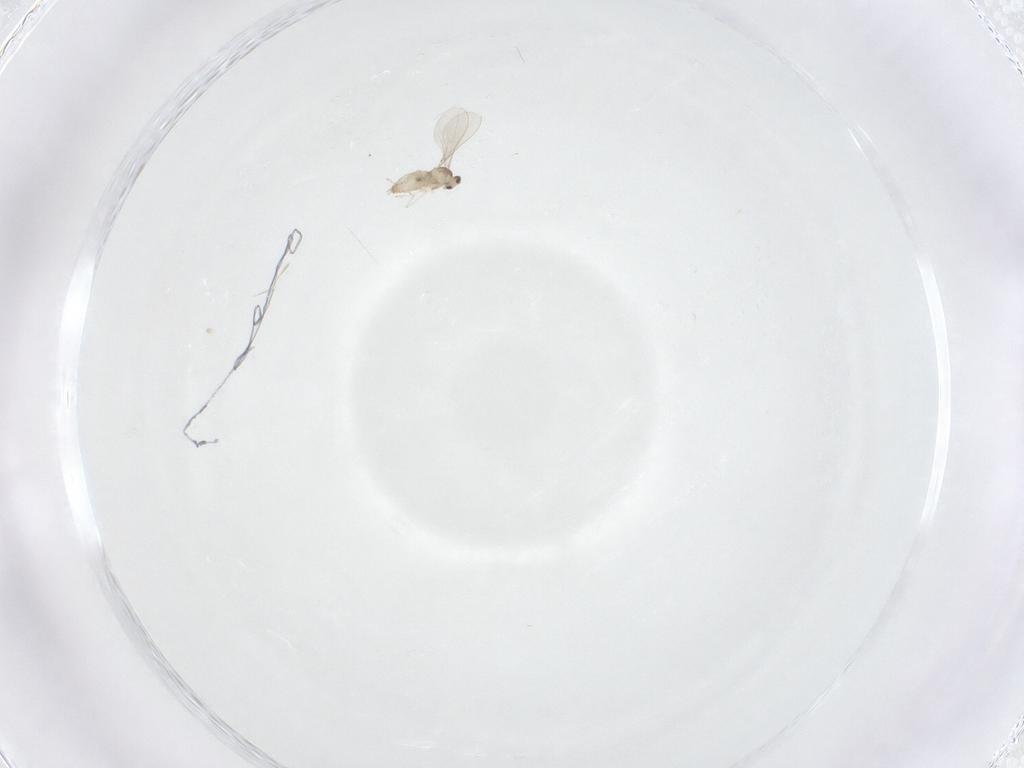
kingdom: Animalia
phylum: Arthropoda
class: Insecta
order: Diptera
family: Cecidomyiidae
